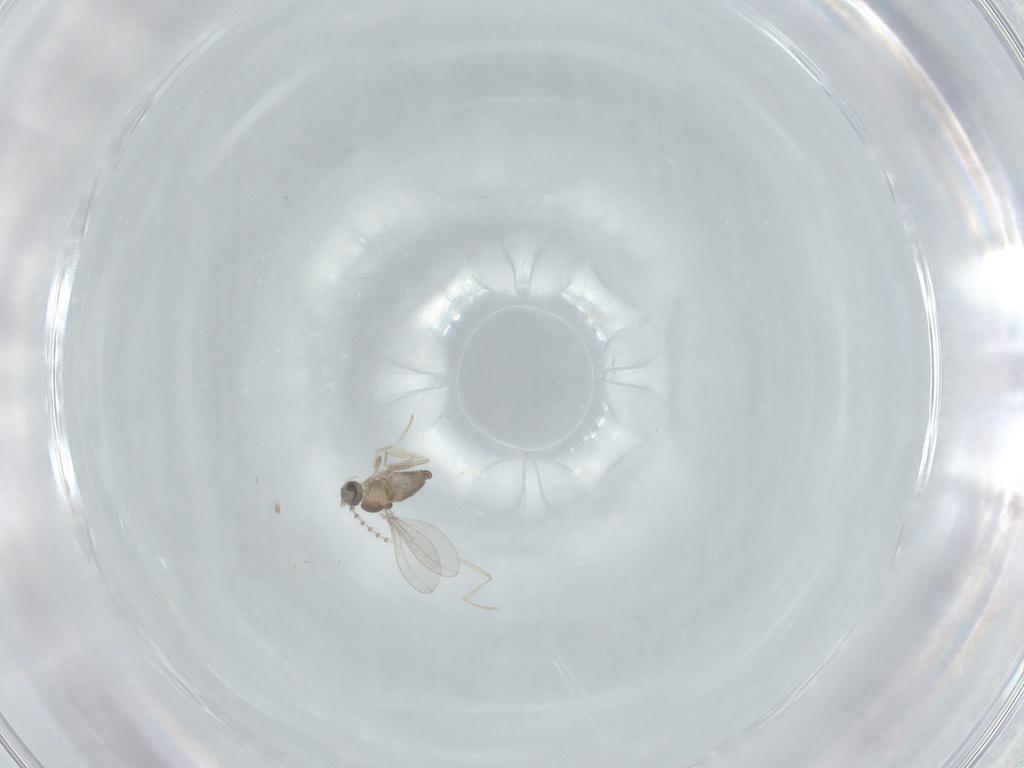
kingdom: Animalia
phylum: Arthropoda
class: Insecta
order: Diptera
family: Cecidomyiidae
